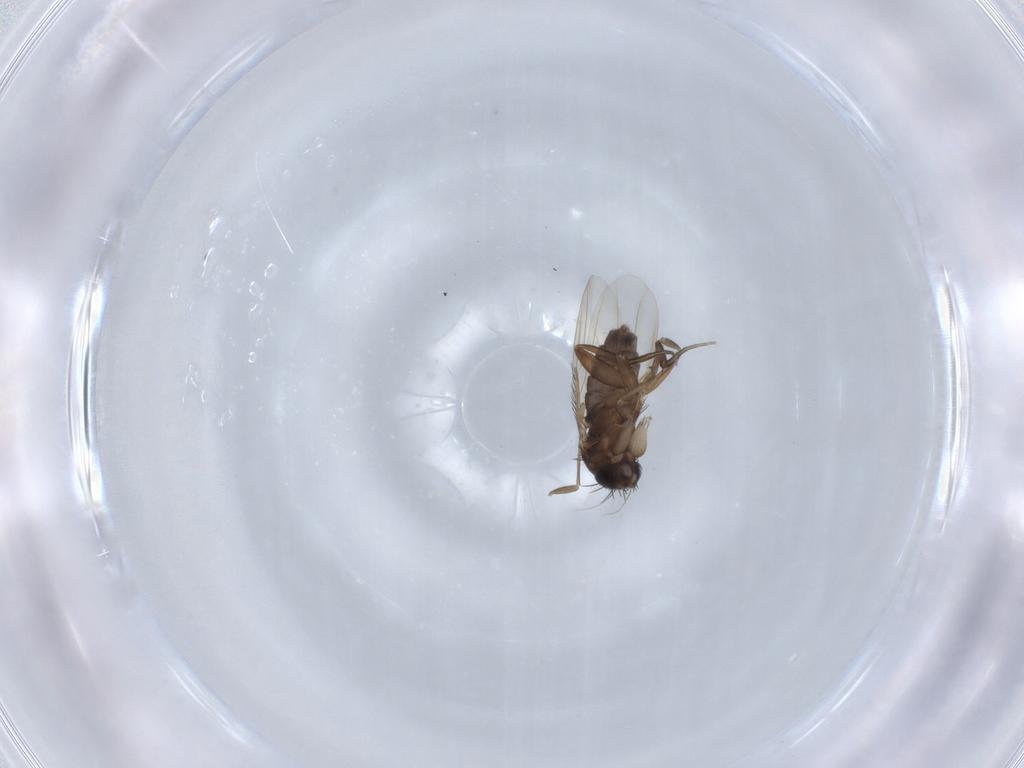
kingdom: Animalia
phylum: Arthropoda
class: Insecta
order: Diptera
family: Phoridae
